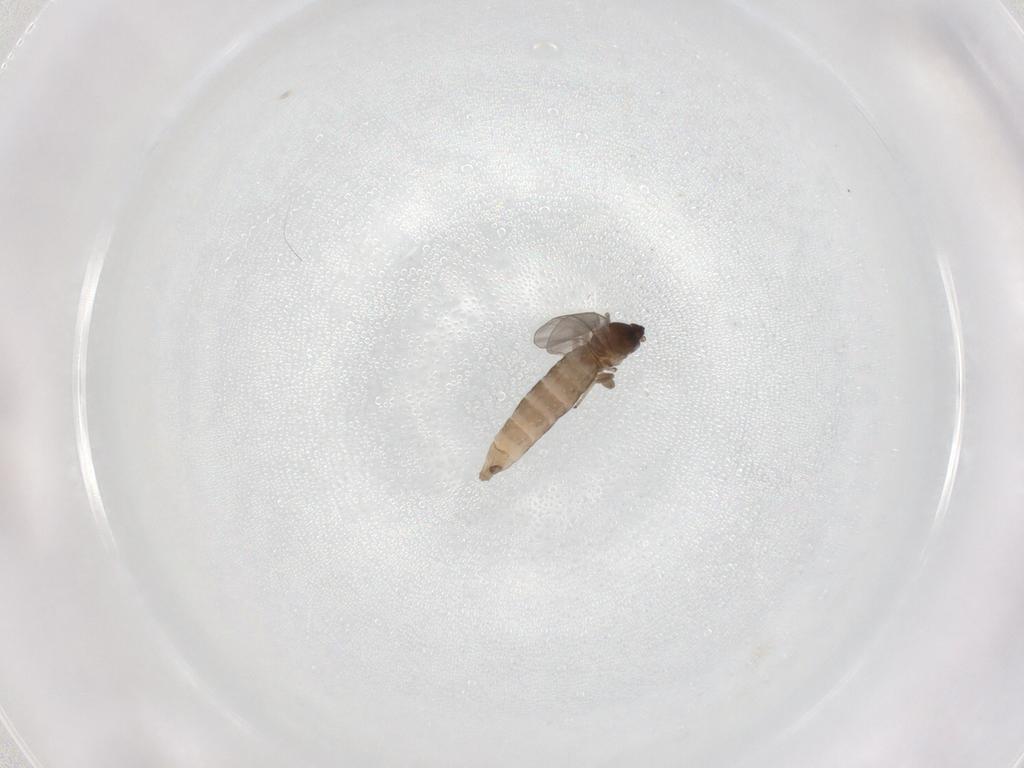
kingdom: Animalia
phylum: Arthropoda
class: Insecta
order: Diptera
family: Cecidomyiidae
